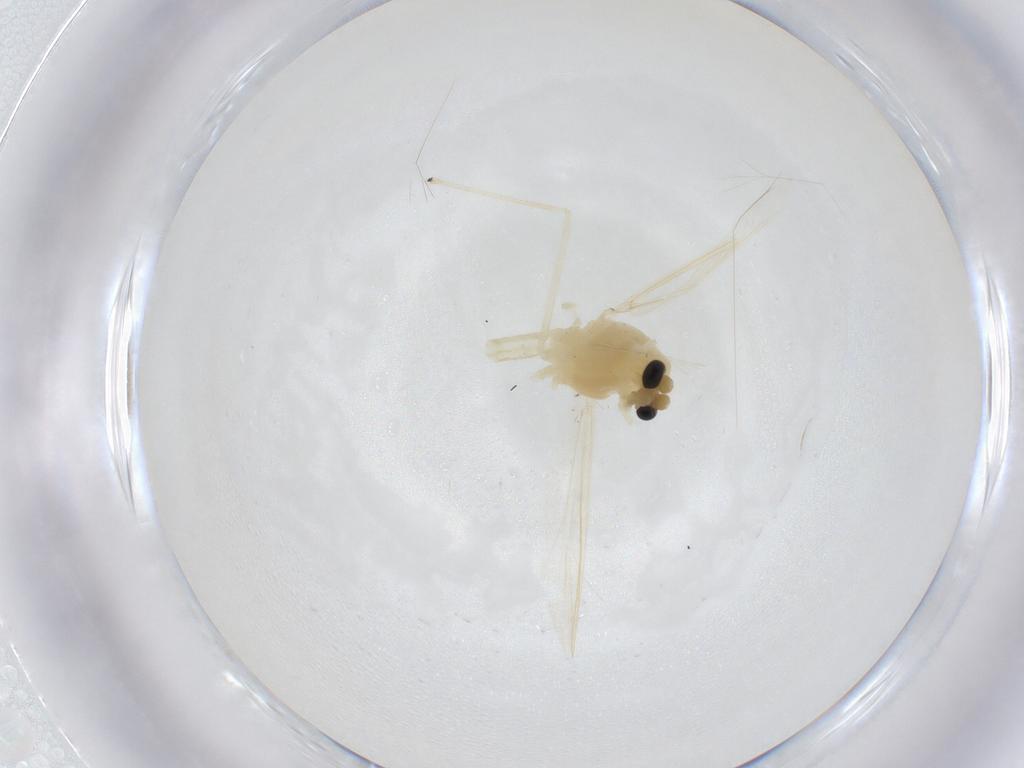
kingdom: Animalia
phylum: Arthropoda
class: Insecta
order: Diptera
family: Chironomidae
